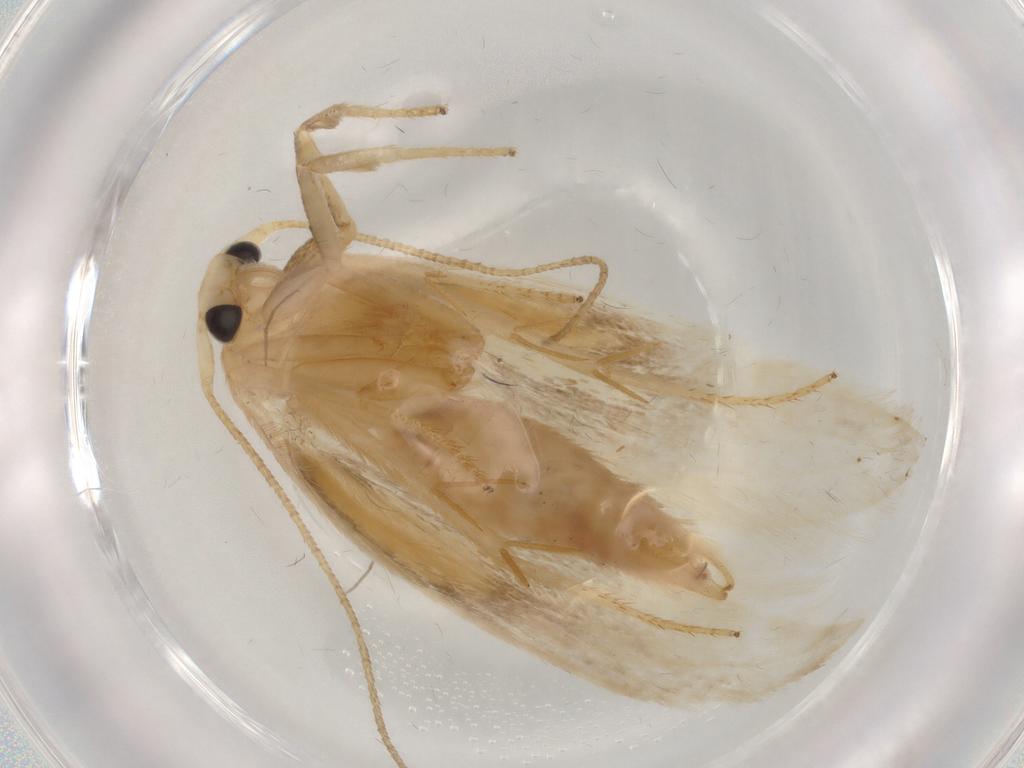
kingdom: Animalia
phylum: Arthropoda
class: Insecta
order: Lepidoptera
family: Geometridae
